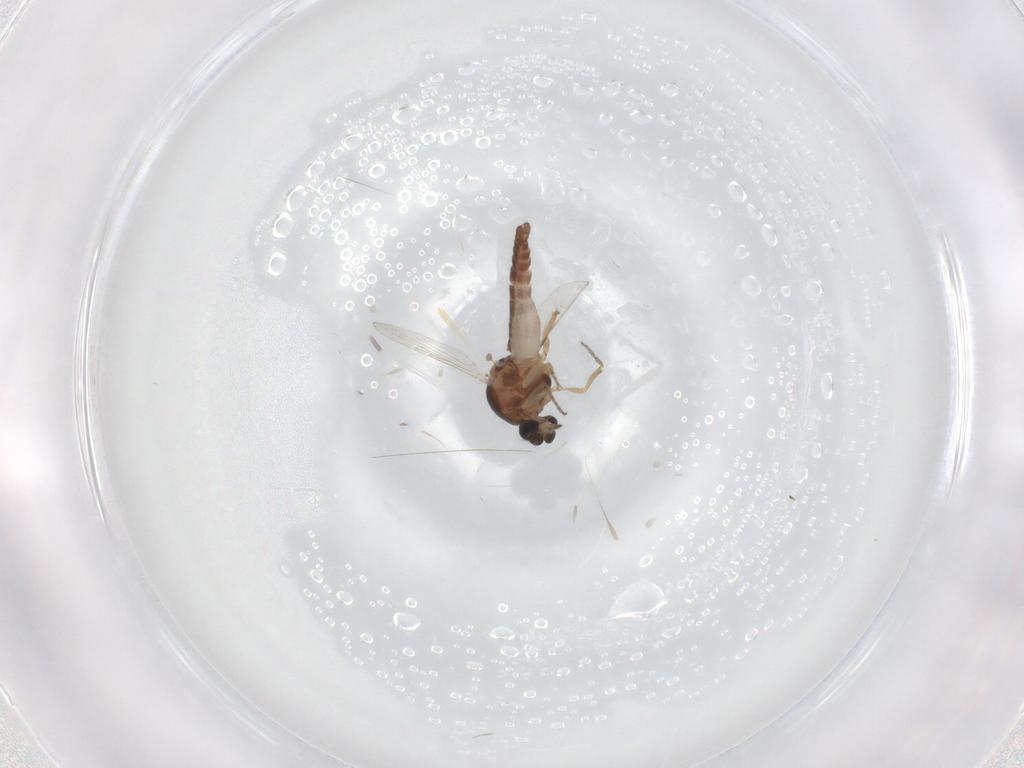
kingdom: Animalia
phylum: Arthropoda
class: Insecta
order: Diptera
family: Ceratopogonidae
